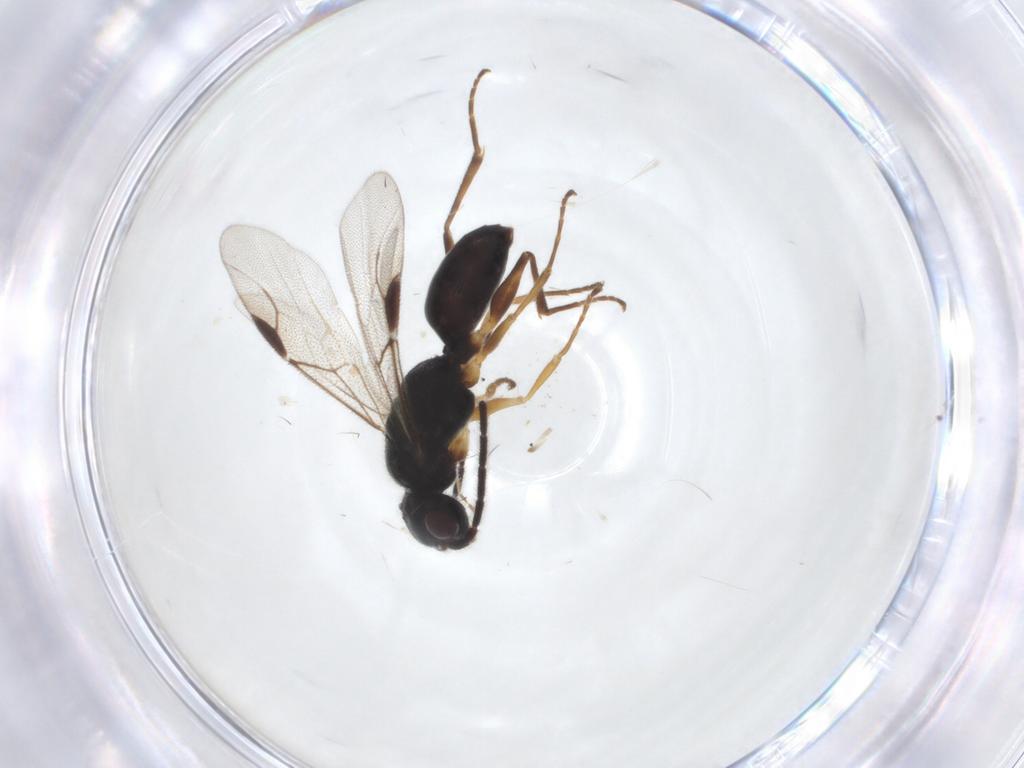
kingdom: Animalia
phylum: Arthropoda
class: Insecta
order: Hymenoptera
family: Dryinidae
